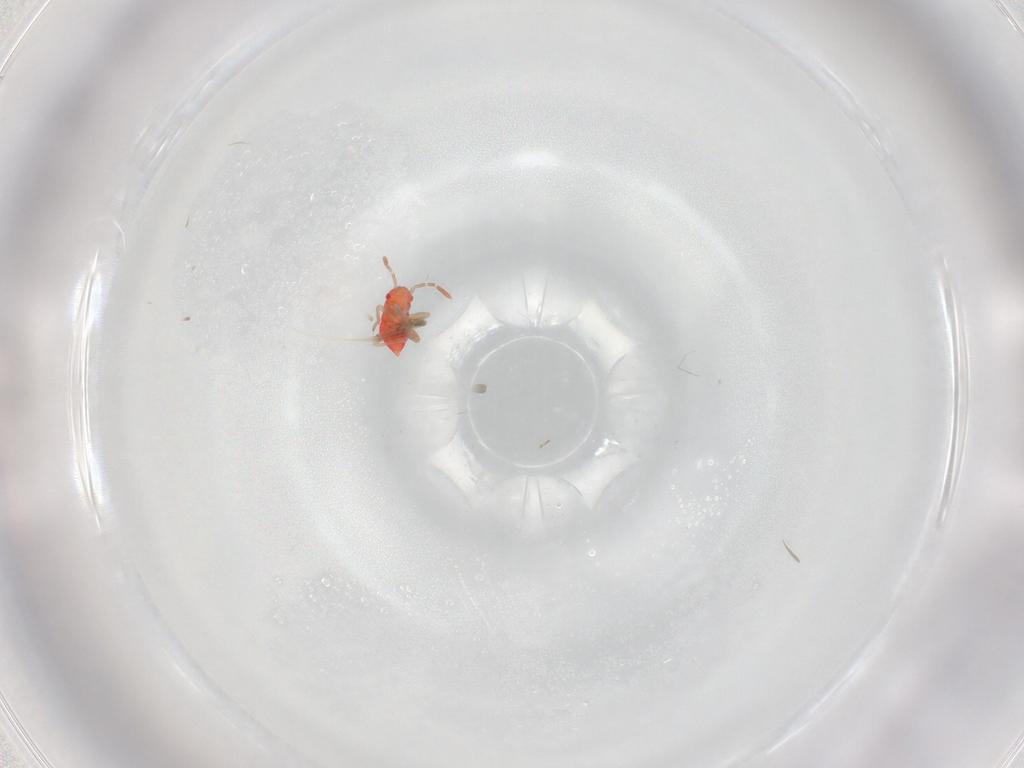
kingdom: Animalia
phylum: Arthropoda
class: Insecta
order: Hemiptera
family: Miridae
